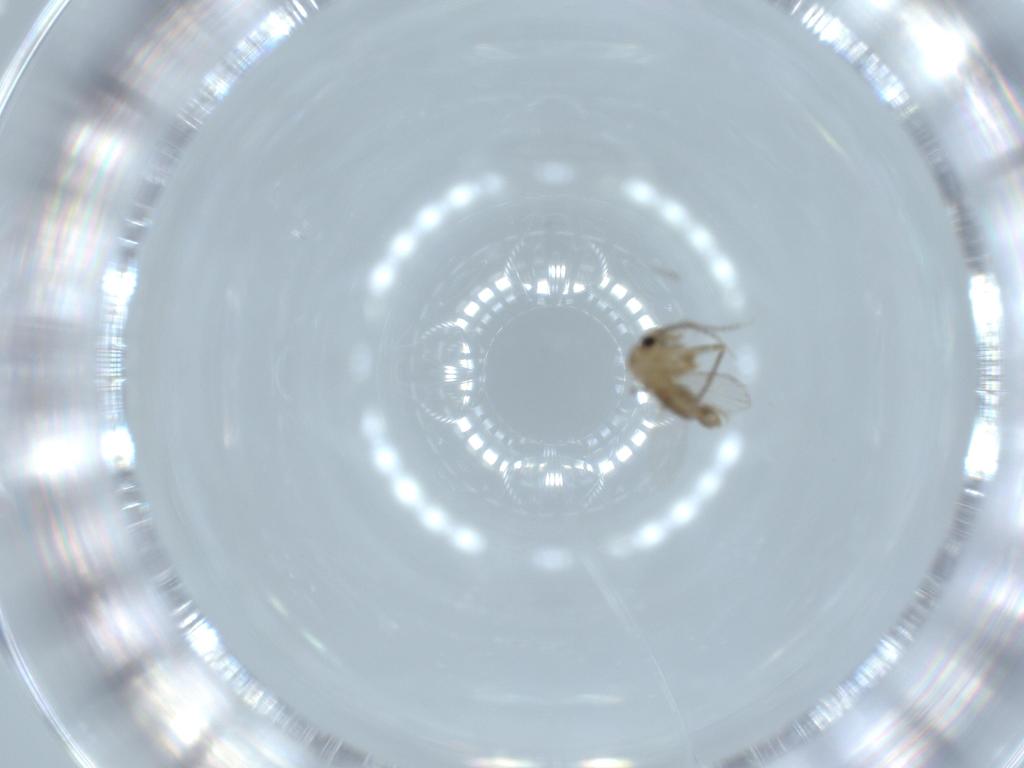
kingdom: Animalia
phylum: Arthropoda
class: Insecta
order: Diptera
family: Psychodidae
